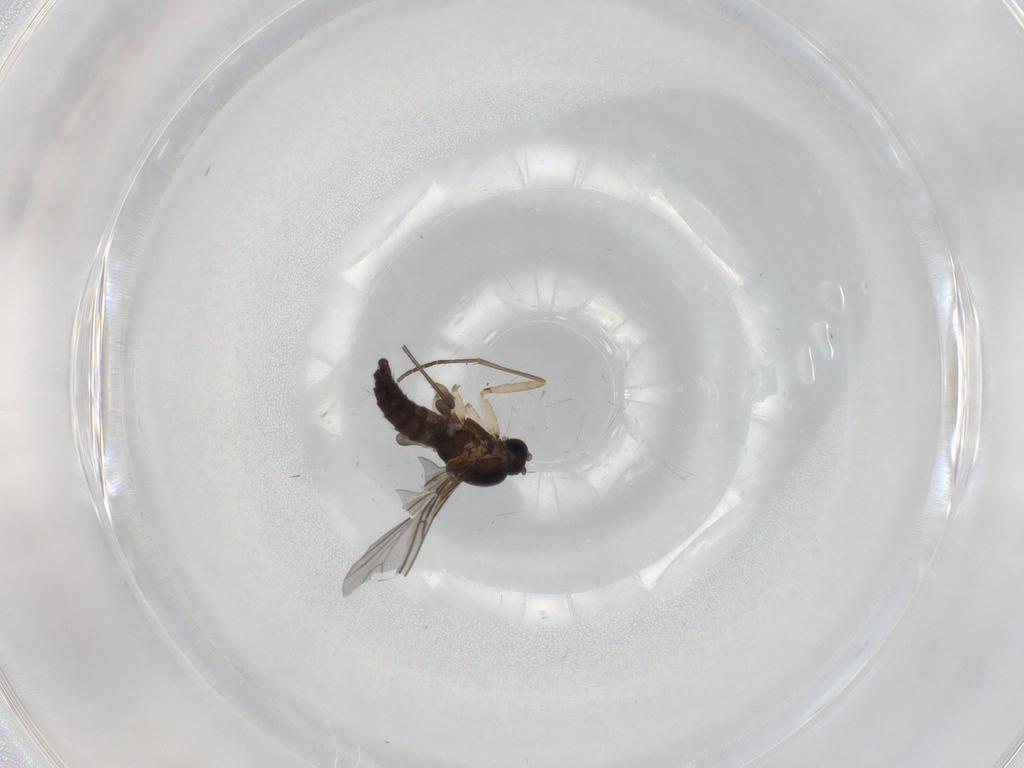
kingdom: Animalia
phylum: Arthropoda
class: Insecta
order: Diptera
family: Sciaridae
